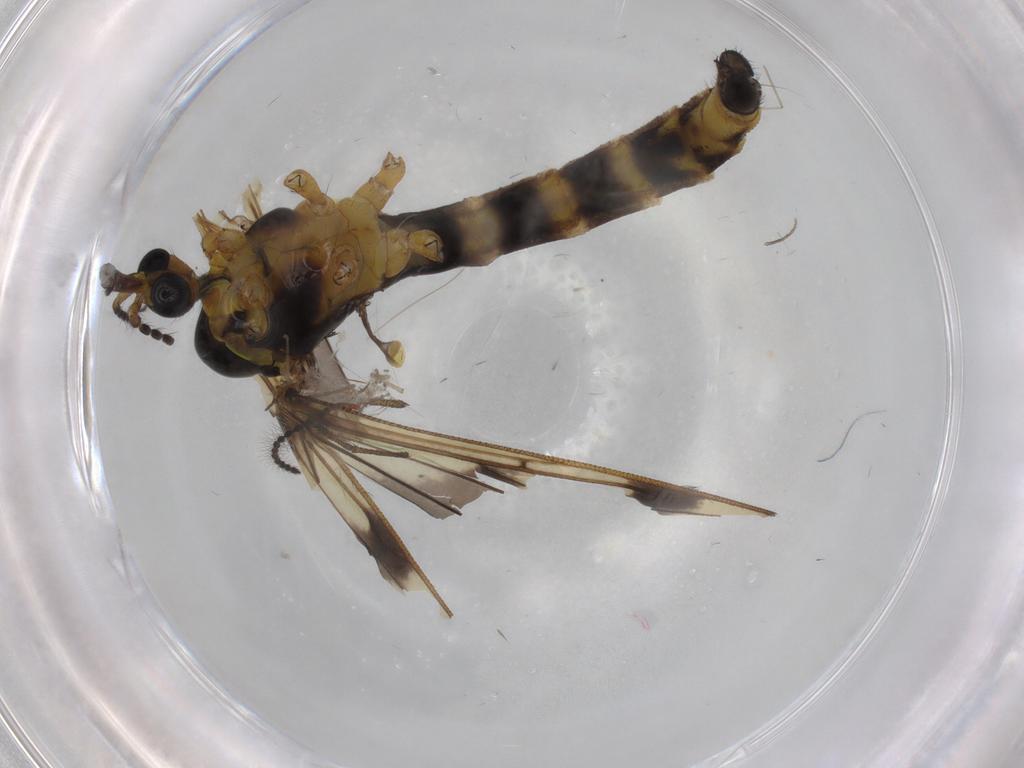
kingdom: Animalia
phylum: Arthropoda
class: Insecta
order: Diptera
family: Limoniidae
